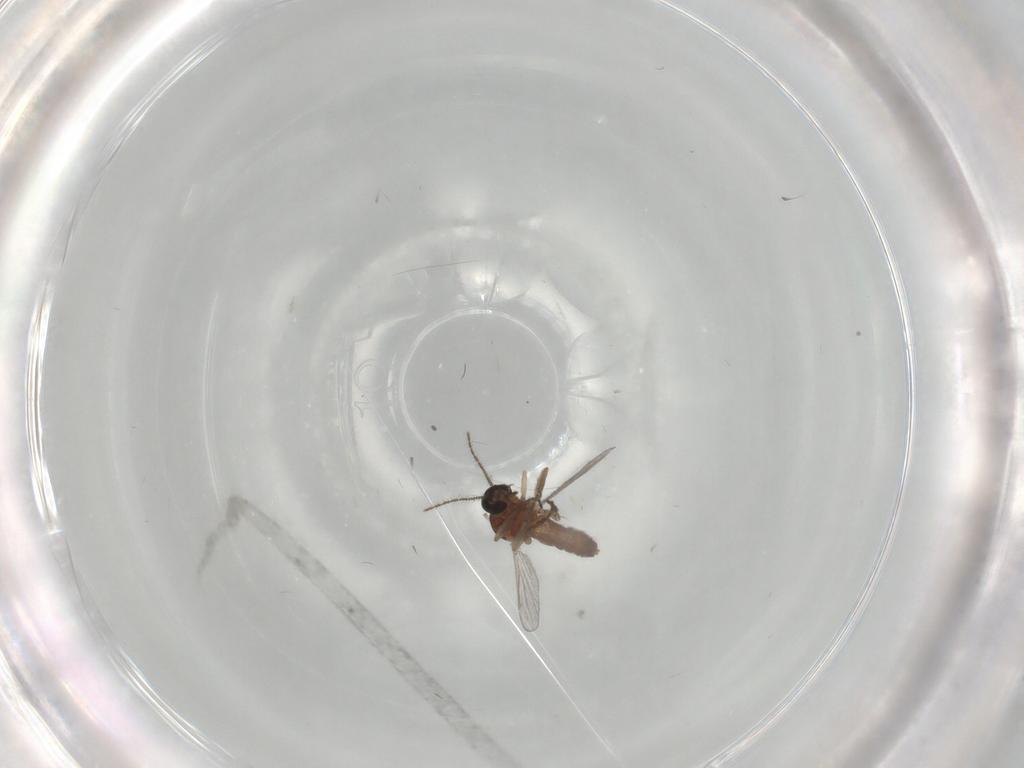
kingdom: Animalia
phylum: Arthropoda
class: Insecta
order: Diptera
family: Ceratopogonidae
